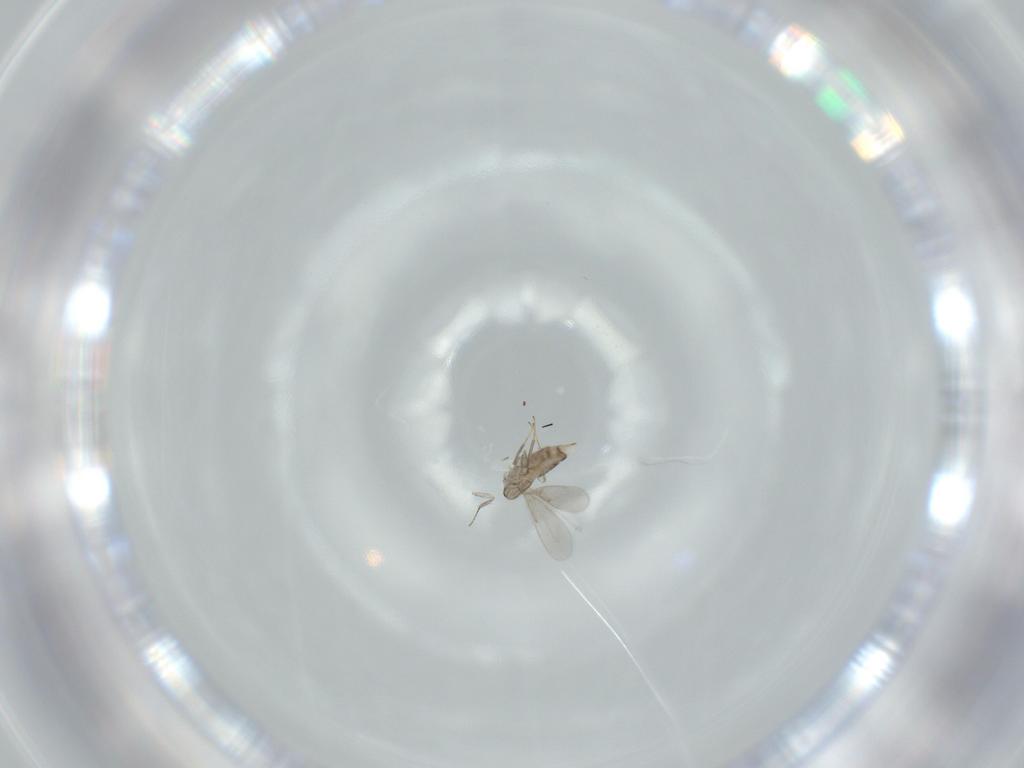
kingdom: Animalia
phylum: Arthropoda
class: Insecta
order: Hymenoptera
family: Aphelinidae
